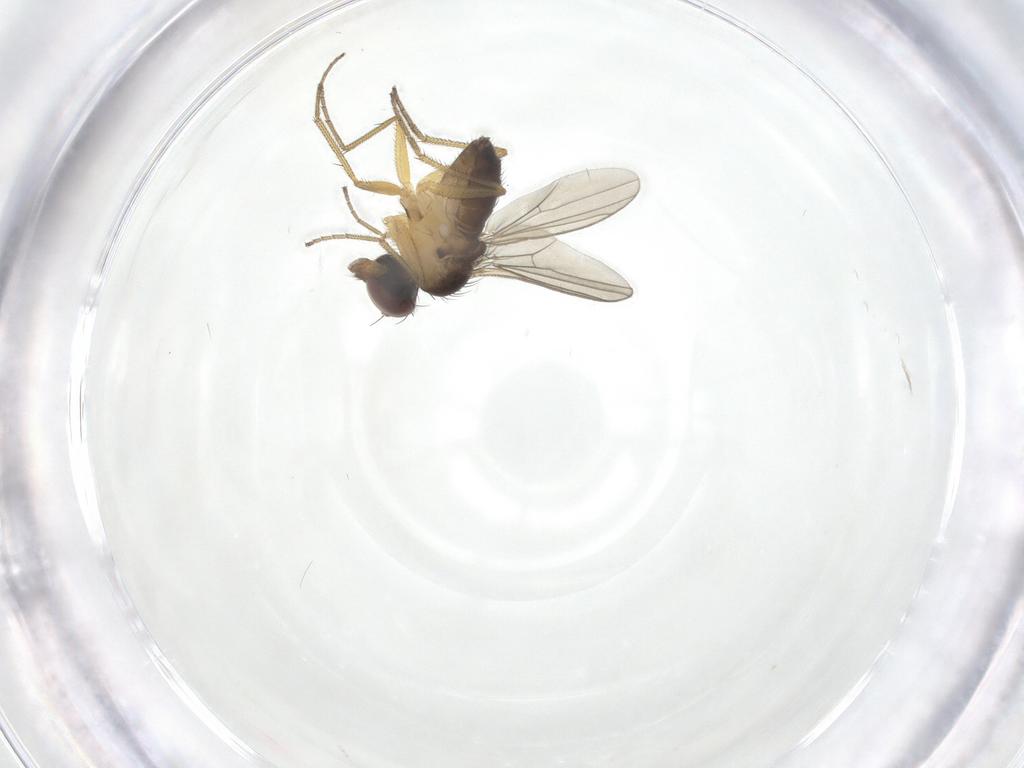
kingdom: Animalia
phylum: Arthropoda
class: Insecta
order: Diptera
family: Dolichopodidae
